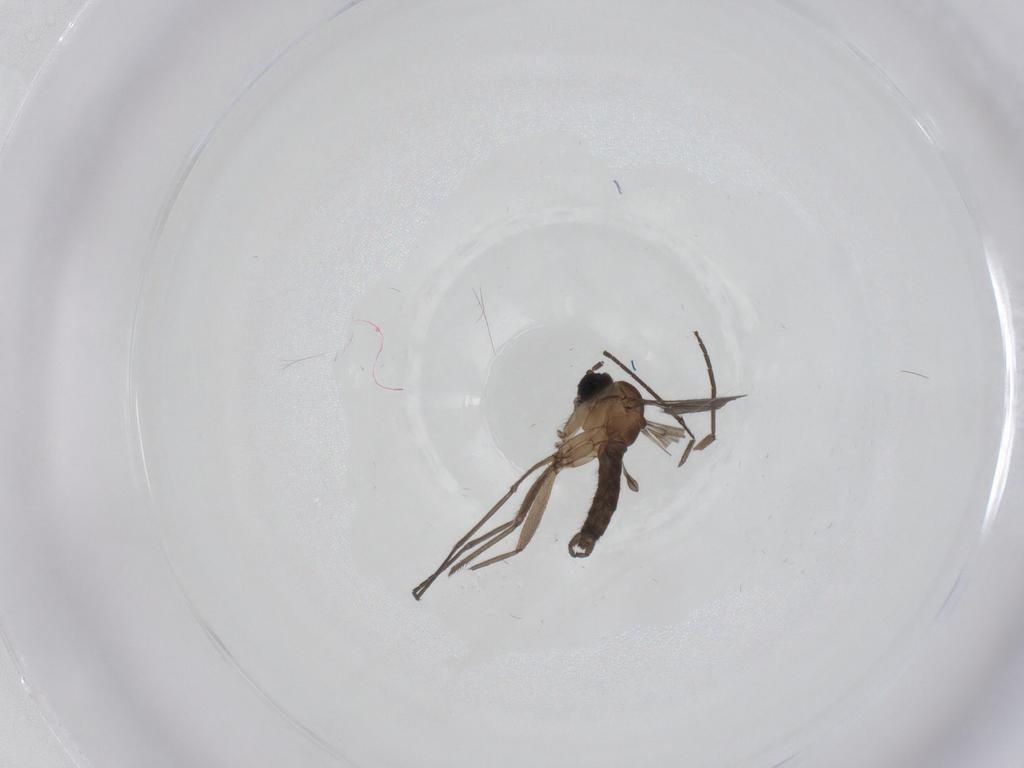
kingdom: Animalia
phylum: Arthropoda
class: Insecta
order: Diptera
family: Sciaridae
